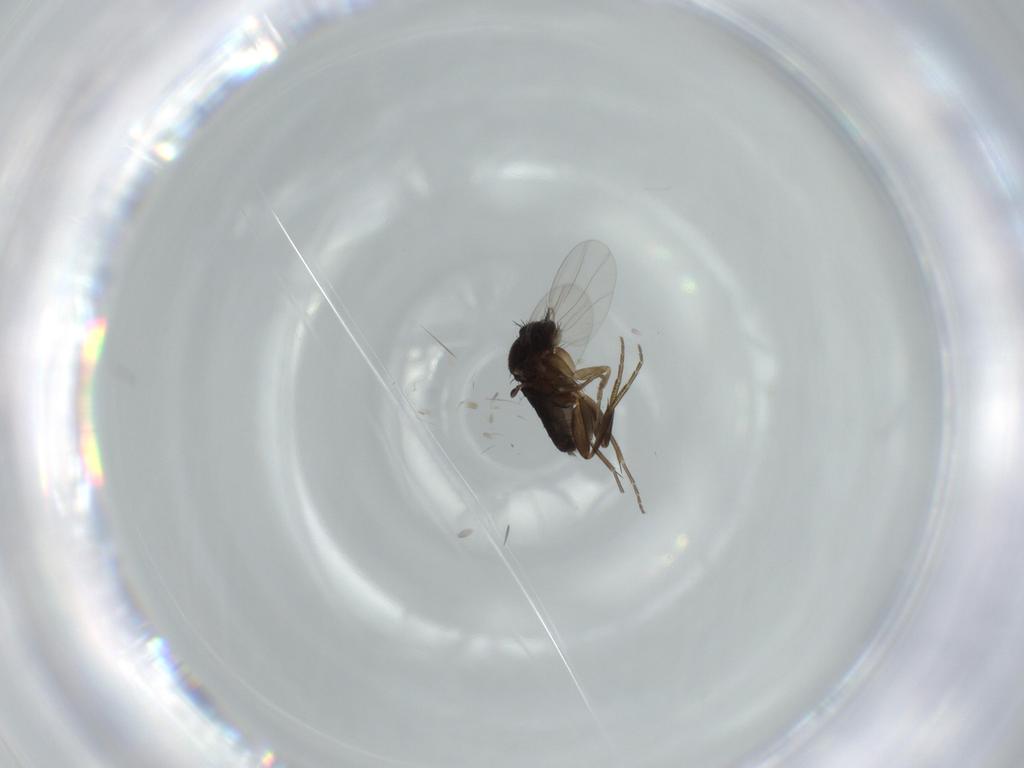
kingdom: Animalia
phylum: Arthropoda
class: Insecta
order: Diptera
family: Phoridae
